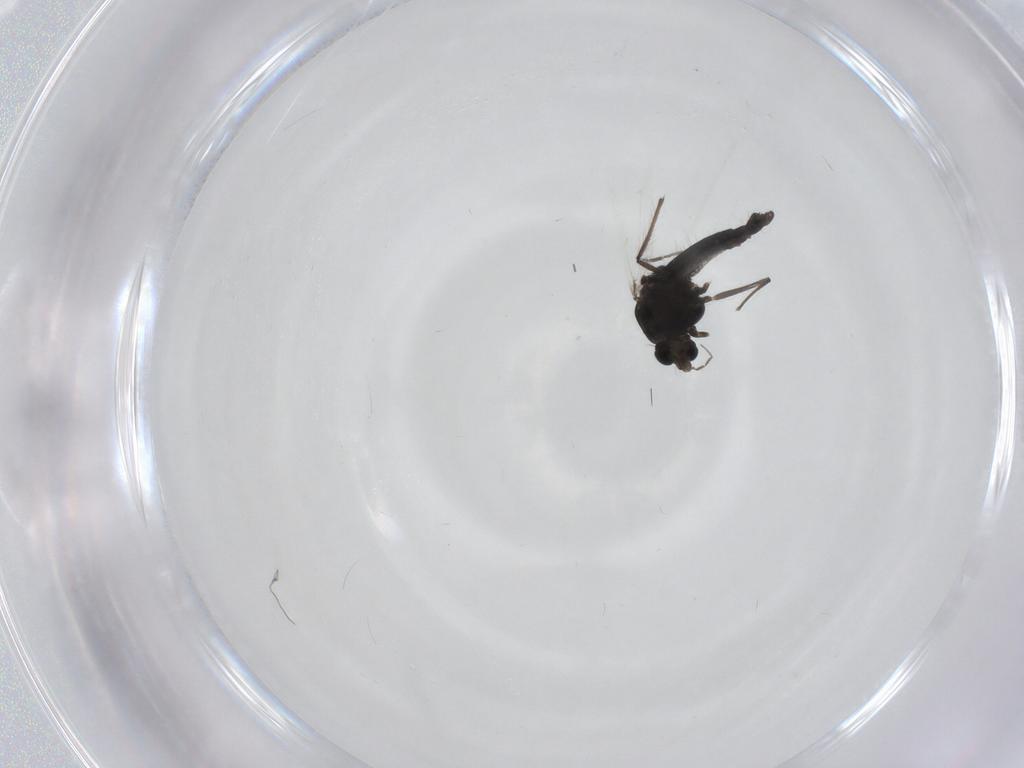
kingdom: Animalia
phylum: Arthropoda
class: Insecta
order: Diptera
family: Chironomidae
